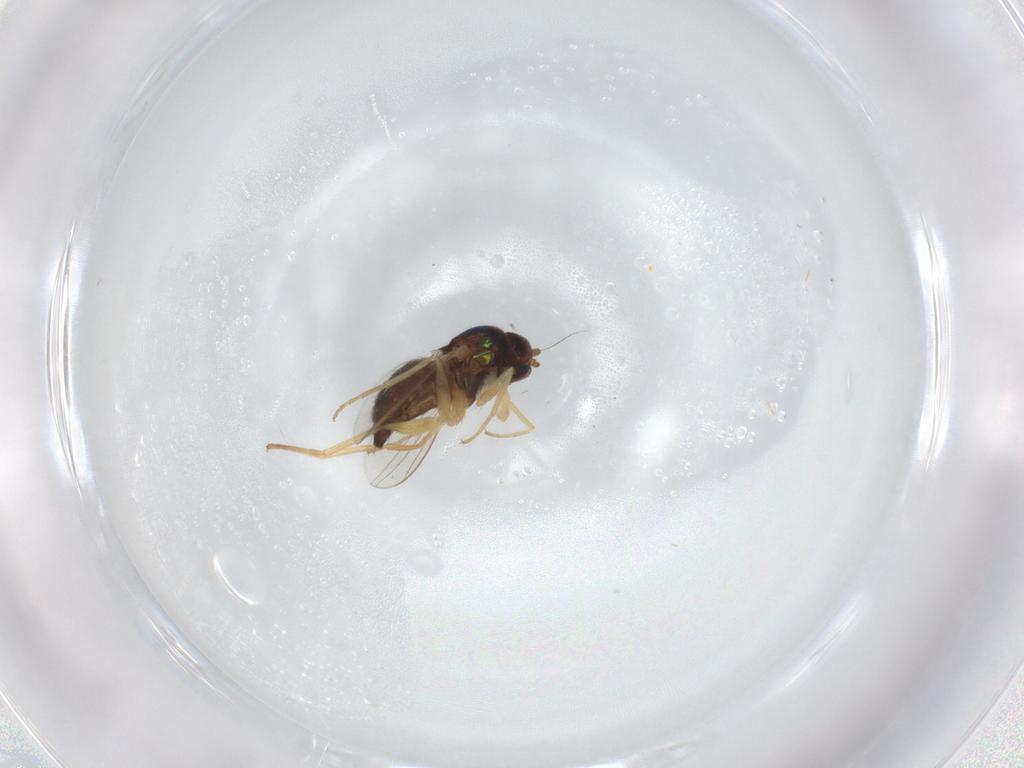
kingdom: Animalia
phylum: Arthropoda
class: Insecta
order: Diptera
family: Dolichopodidae
